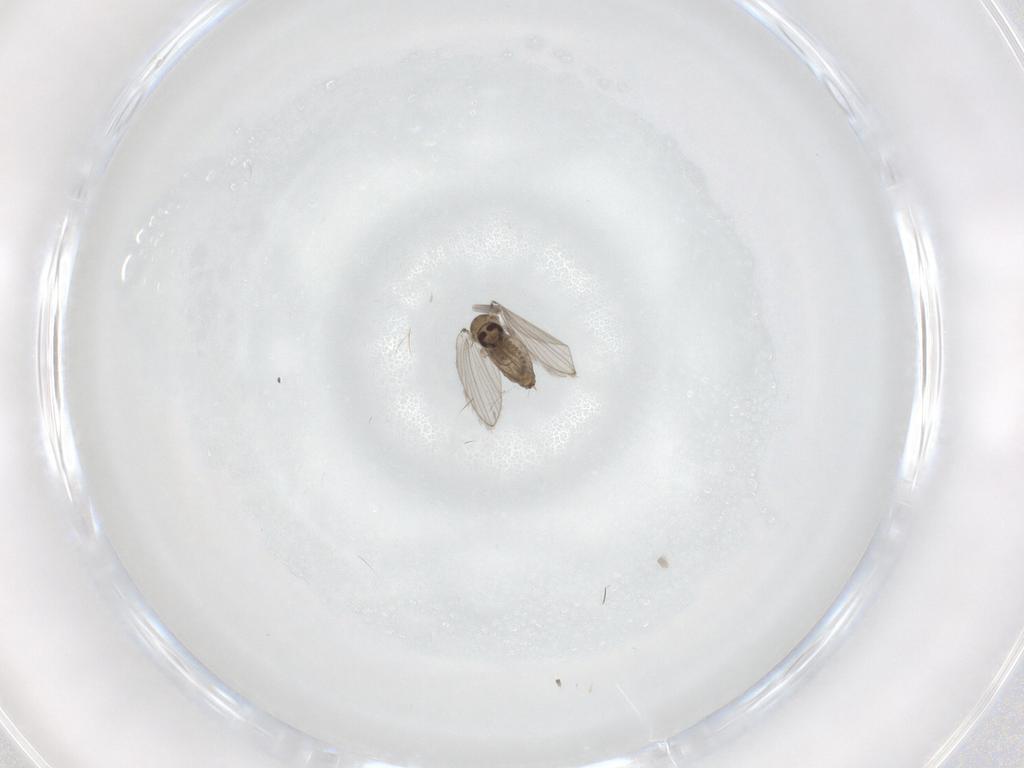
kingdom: Animalia
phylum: Arthropoda
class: Insecta
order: Diptera
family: Psychodidae
